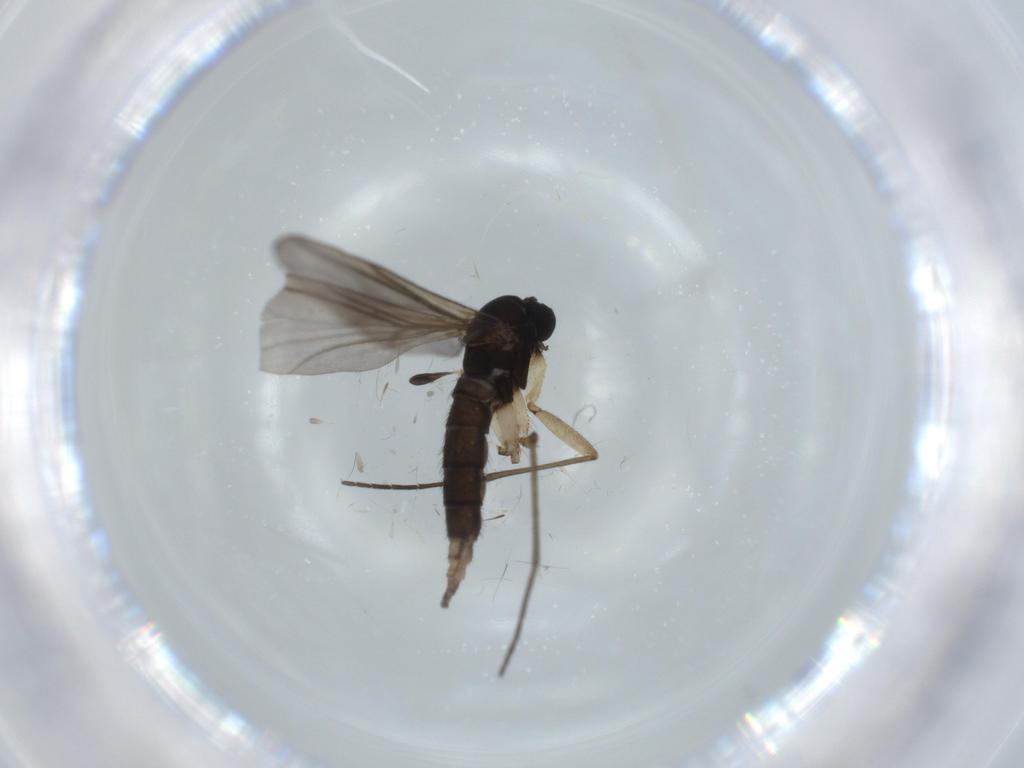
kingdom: Animalia
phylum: Arthropoda
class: Insecta
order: Diptera
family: Sciaridae
